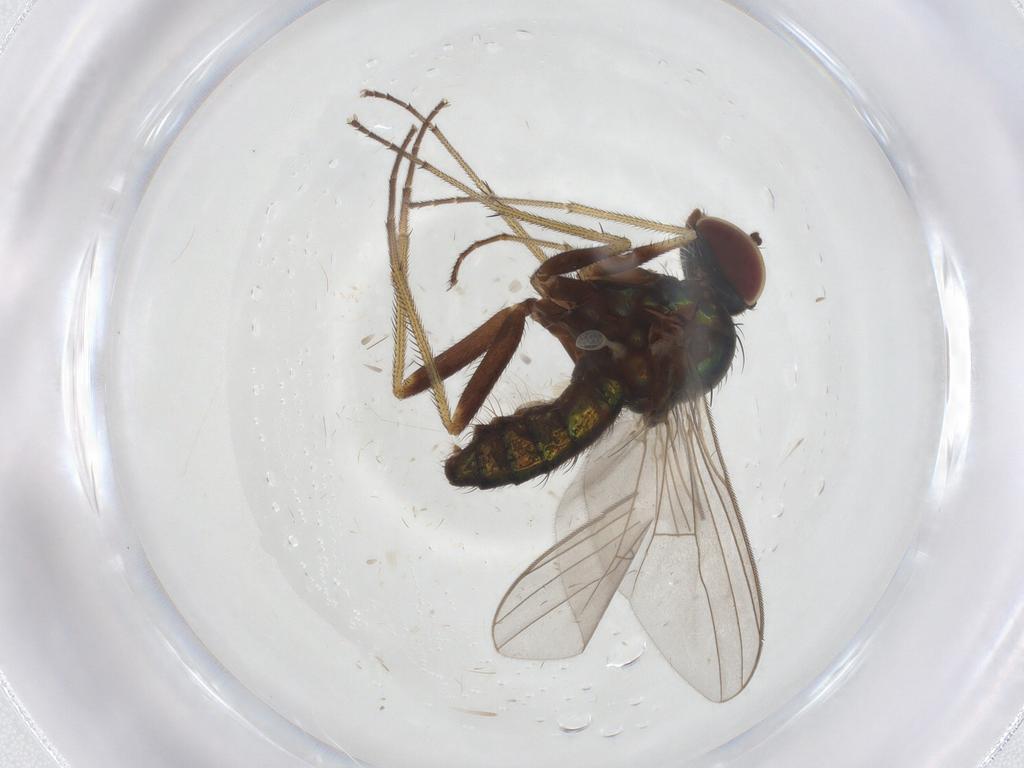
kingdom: Animalia
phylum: Arthropoda
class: Insecta
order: Diptera
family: Dolichopodidae
